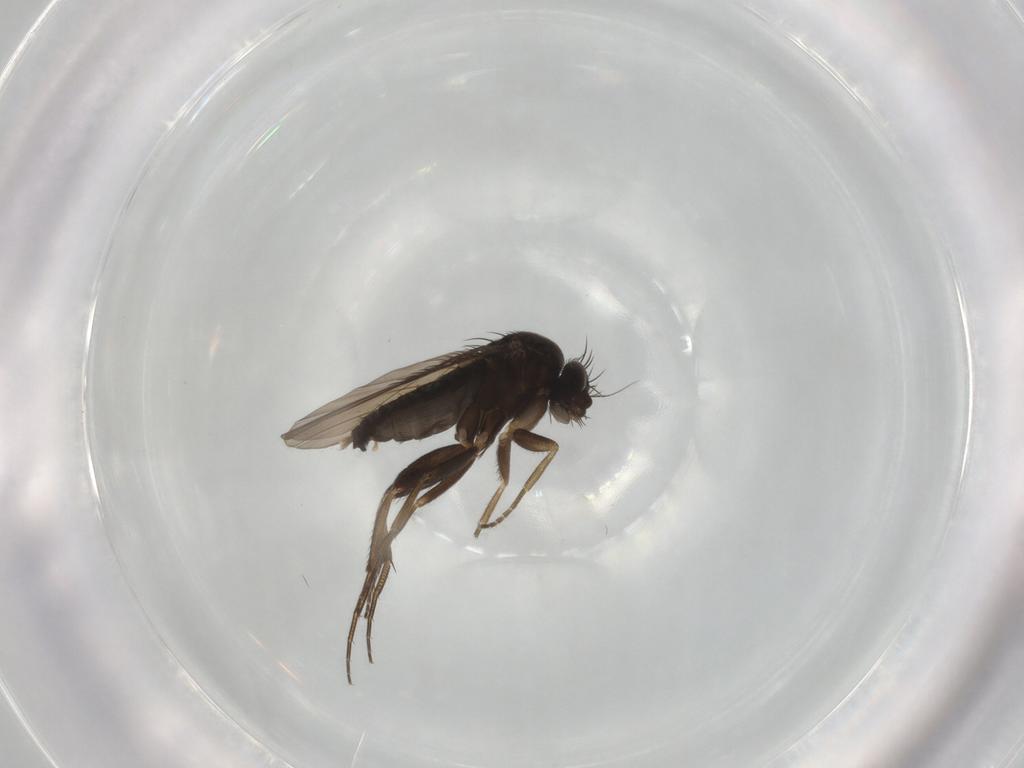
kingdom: Animalia
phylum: Arthropoda
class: Insecta
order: Diptera
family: Phoridae
